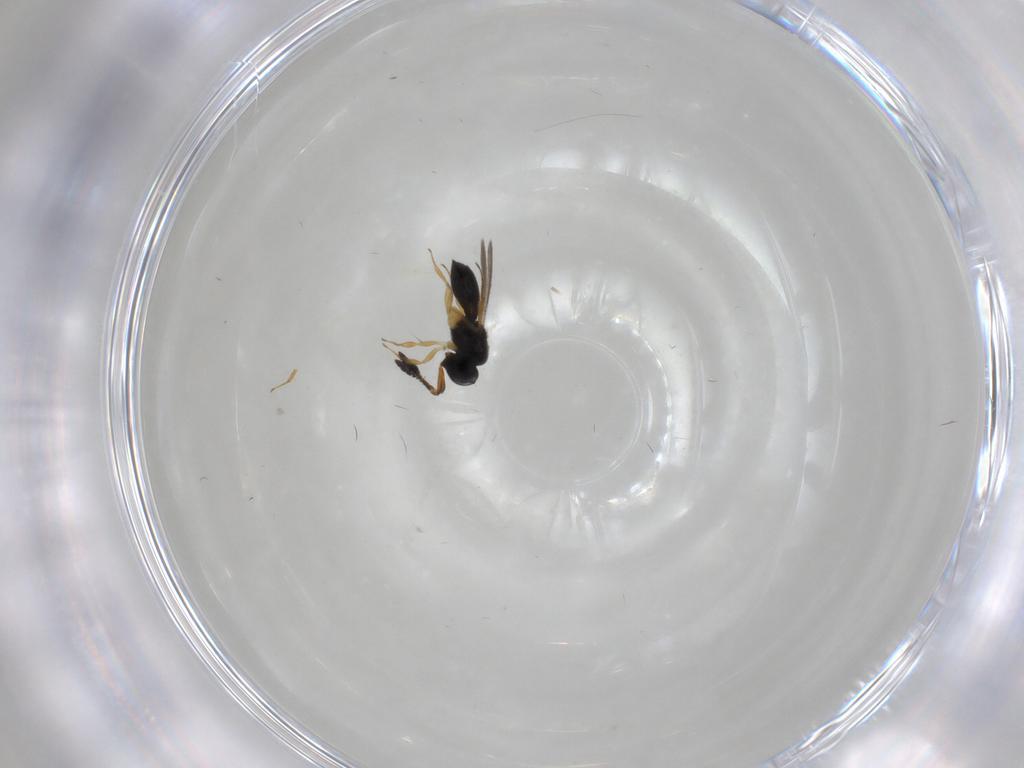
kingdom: Animalia
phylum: Arthropoda
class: Insecta
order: Hymenoptera
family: Scelionidae
